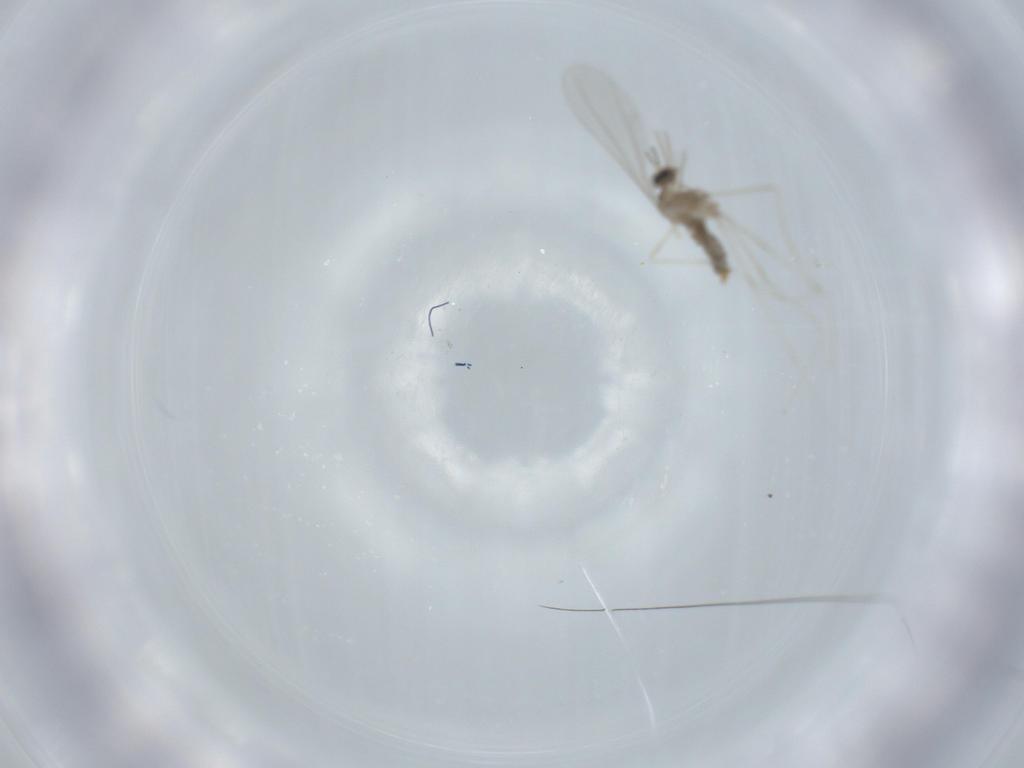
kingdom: Animalia
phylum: Arthropoda
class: Insecta
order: Diptera
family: Cecidomyiidae
